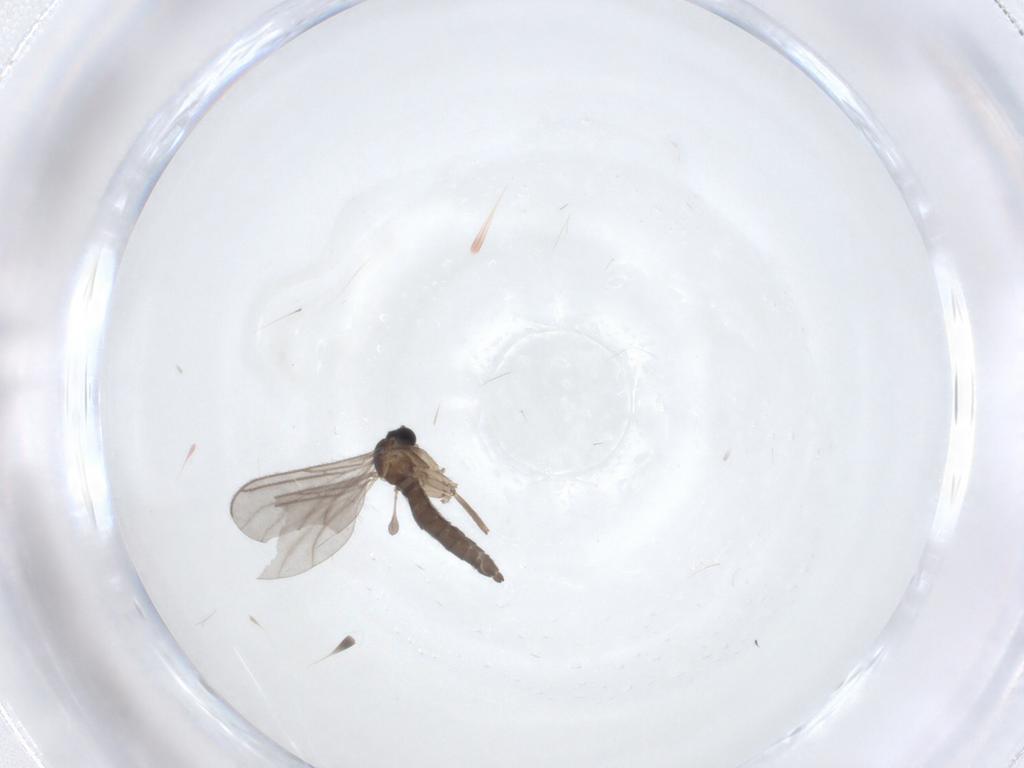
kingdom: Animalia
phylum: Arthropoda
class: Insecta
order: Diptera
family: Sciaridae
